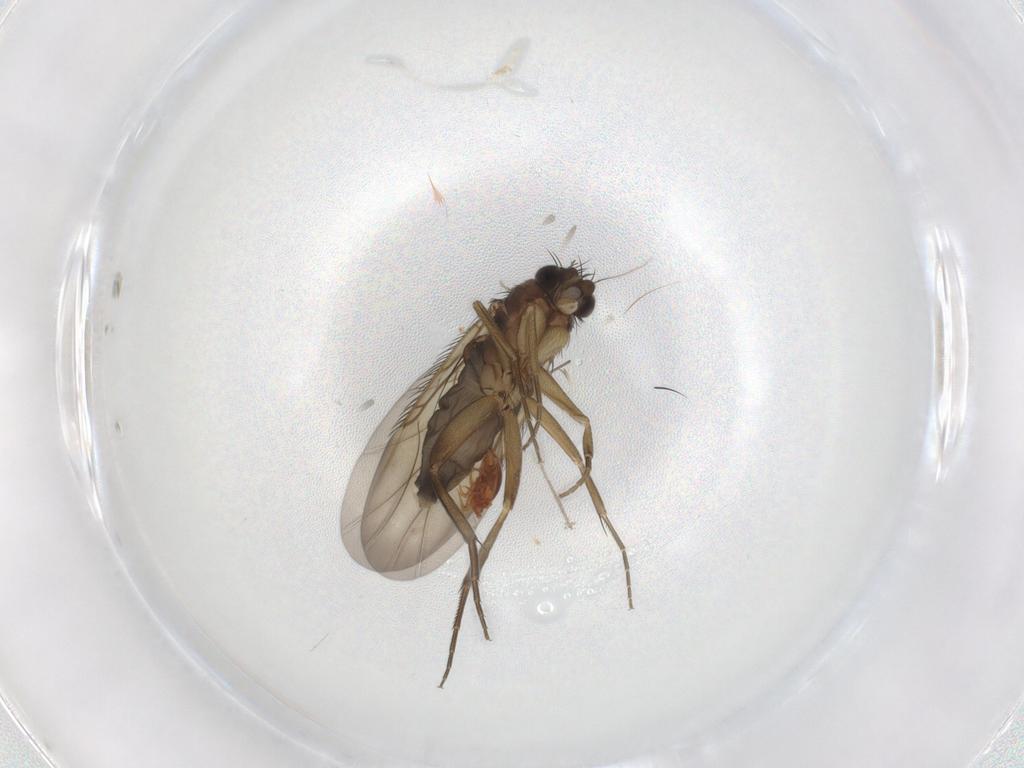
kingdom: Animalia
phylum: Arthropoda
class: Insecta
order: Diptera
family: Phoridae
